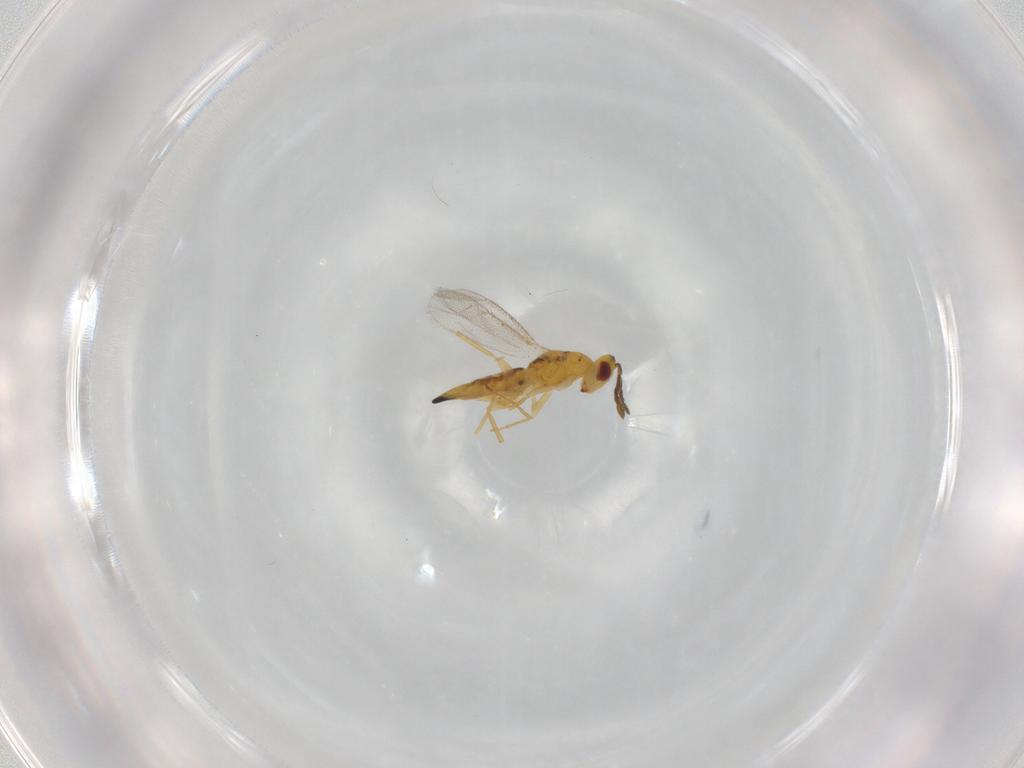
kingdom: Animalia
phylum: Arthropoda
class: Insecta
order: Hymenoptera
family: Eulophidae
